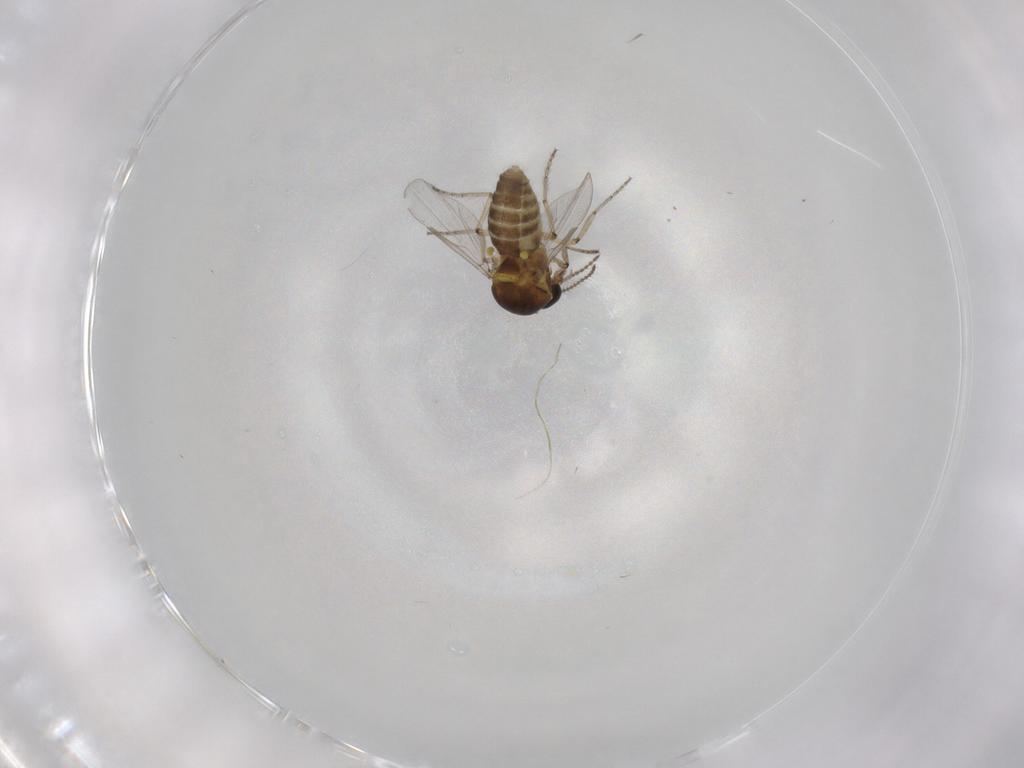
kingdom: Animalia
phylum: Arthropoda
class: Insecta
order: Diptera
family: Ceratopogonidae
